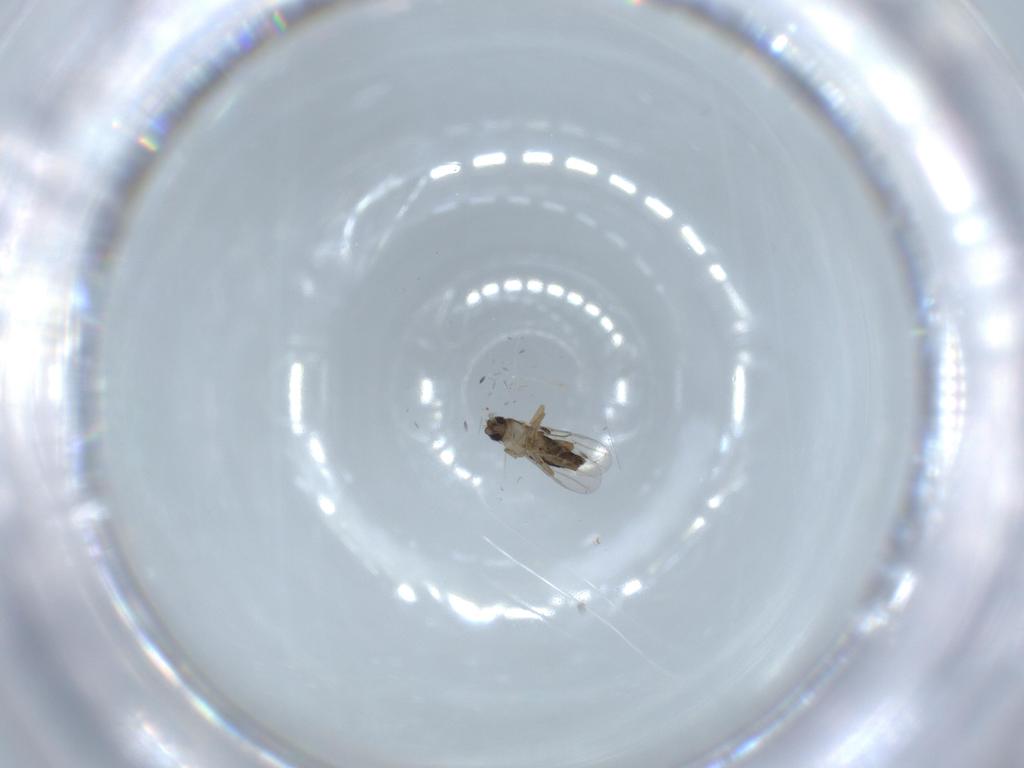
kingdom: Animalia
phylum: Arthropoda
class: Insecta
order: Diptera
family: Phoridae
